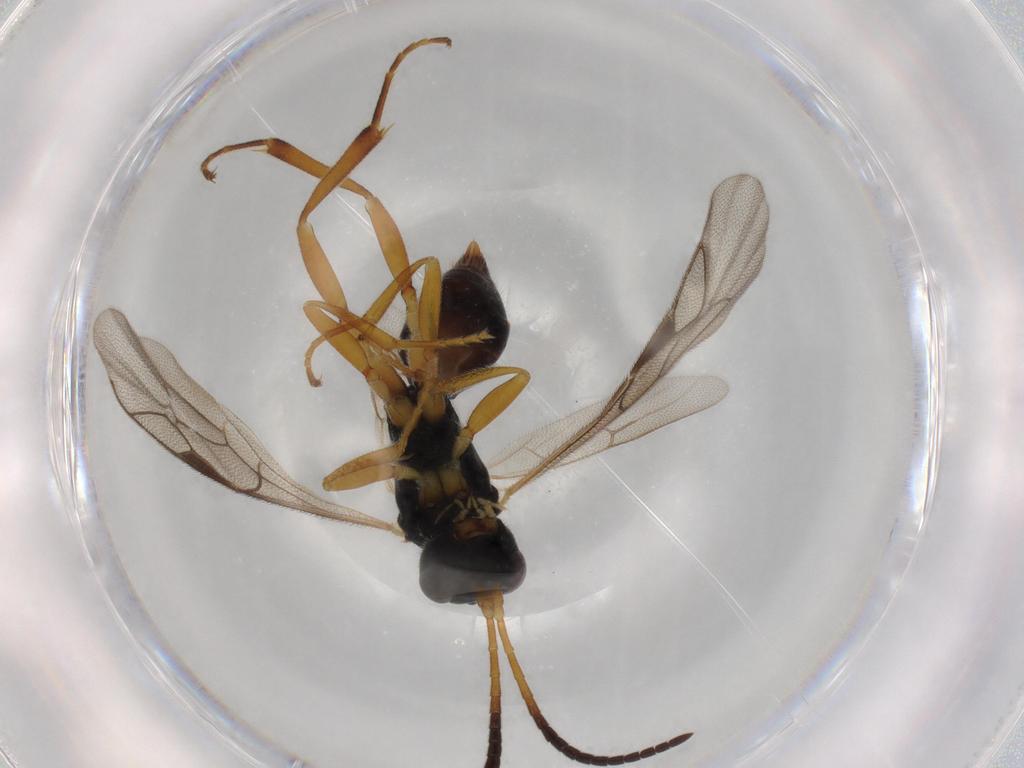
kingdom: Animalia
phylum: Arthropoda
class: Insecta
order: Hymenoptera
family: Ichneumonidae
